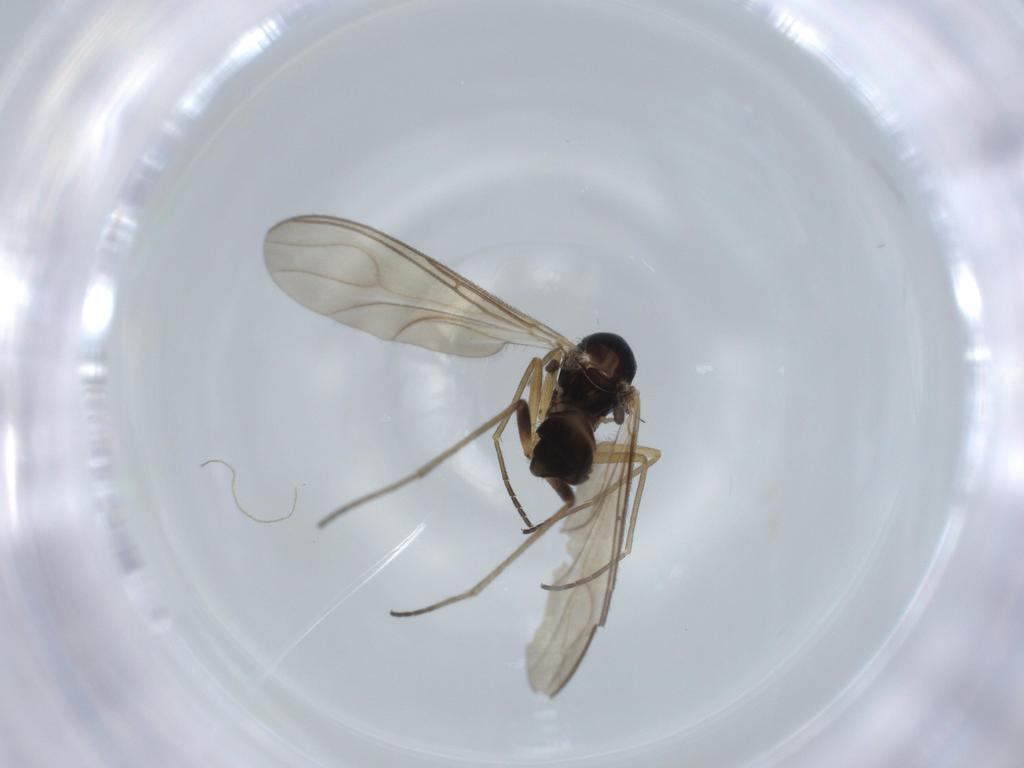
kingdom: Animalia
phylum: Arthropoda
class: Insecta
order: Diptera
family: Sciaridae
